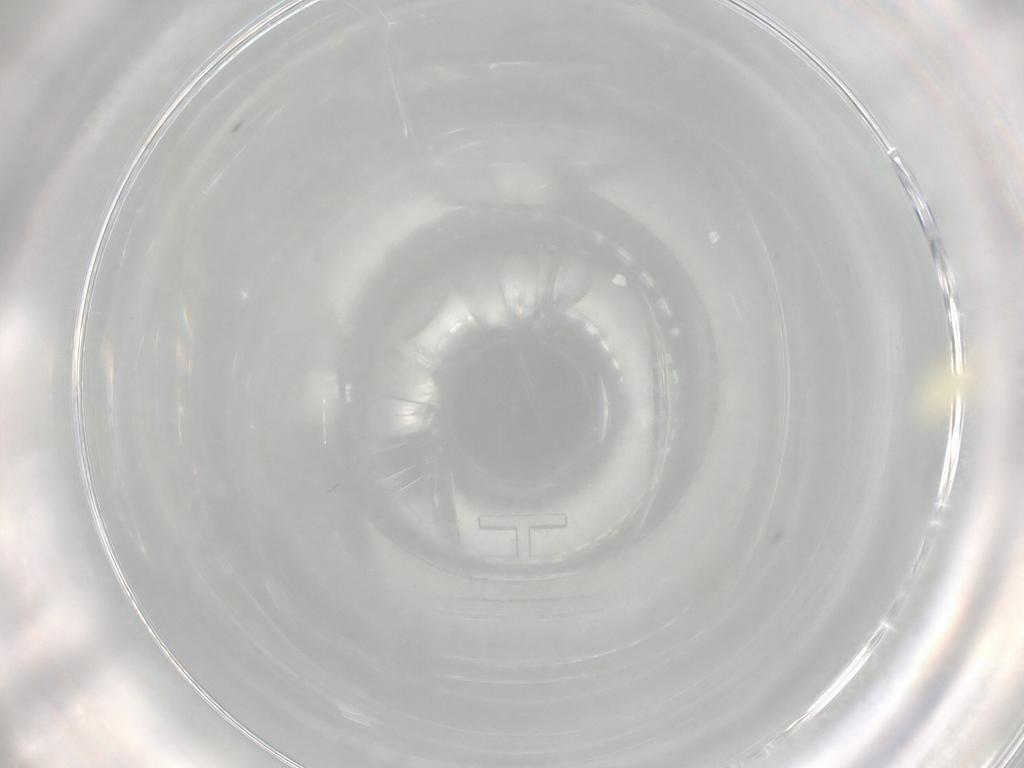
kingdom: Animalia
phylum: Arthropoda
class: Insecta
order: Hemiptera
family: Aleyrodidae
